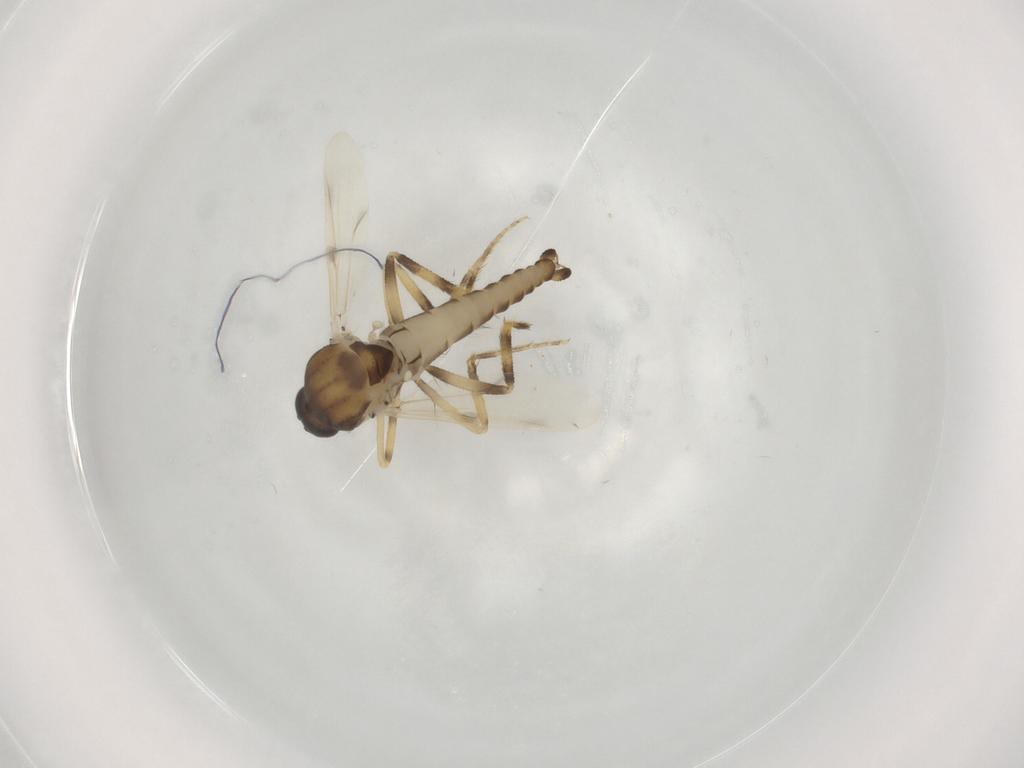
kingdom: Animalia
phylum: Arthropoda
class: Insecta
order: Diptera
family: Ceratopogonidae
